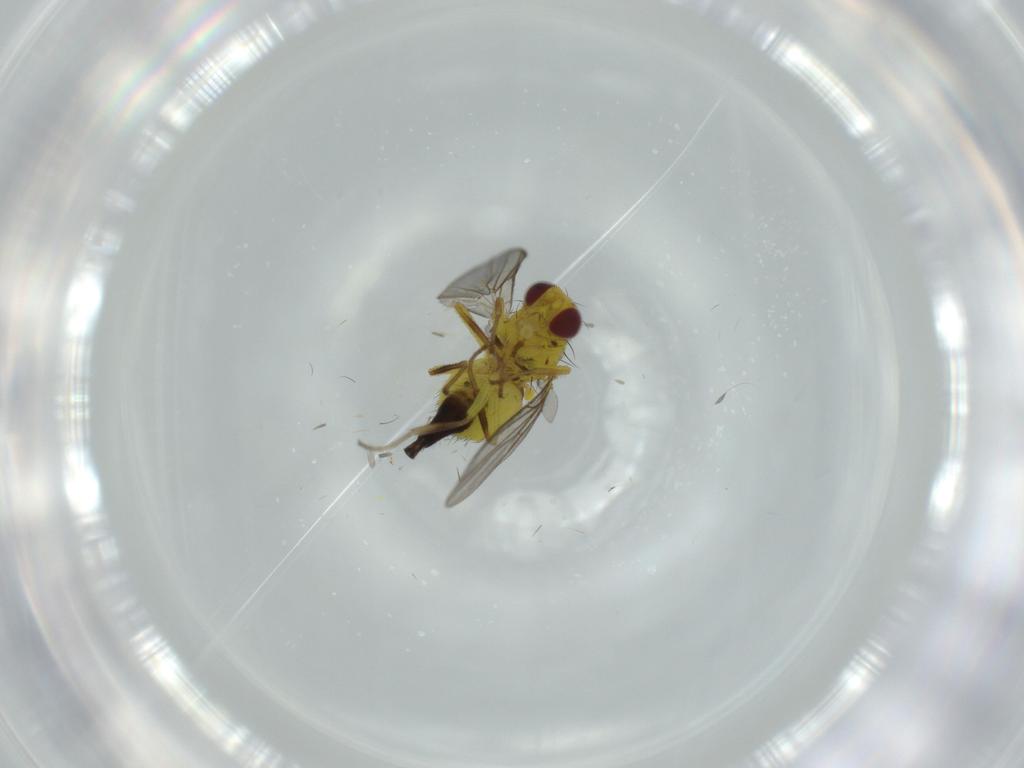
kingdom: Animalia
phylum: Arthropoda
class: Insecta
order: Diptera
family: Agromyzidae
